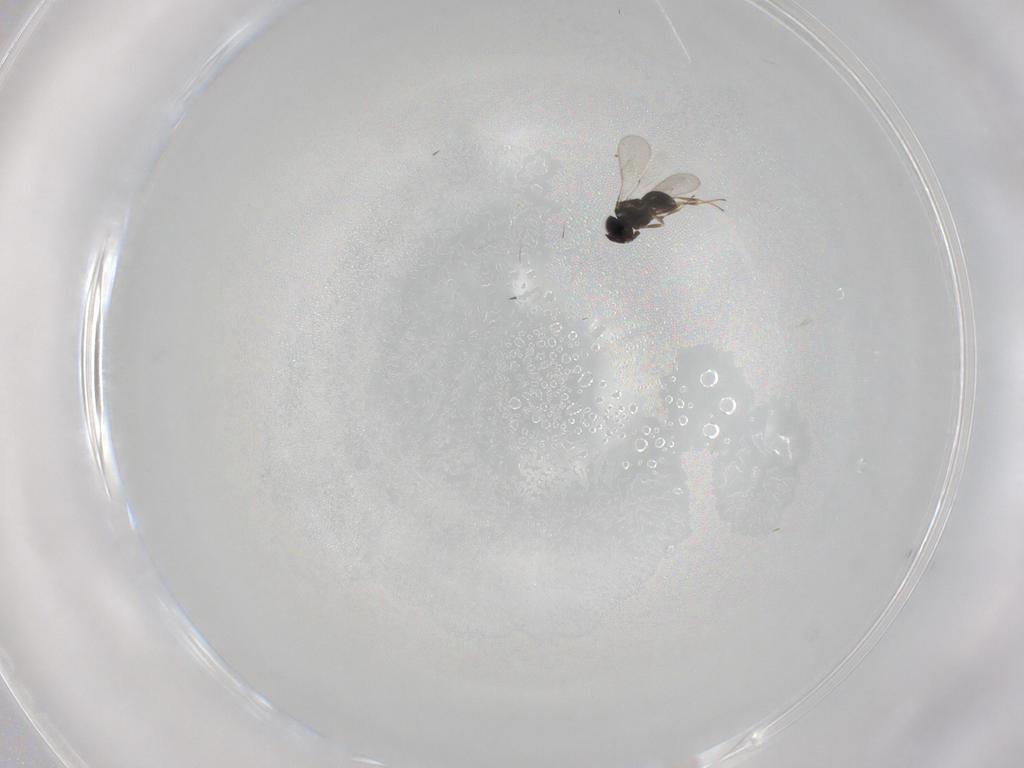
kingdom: Animalia
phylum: Arthropoda
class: Insecta
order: Hymenoptera
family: Scelionidae
